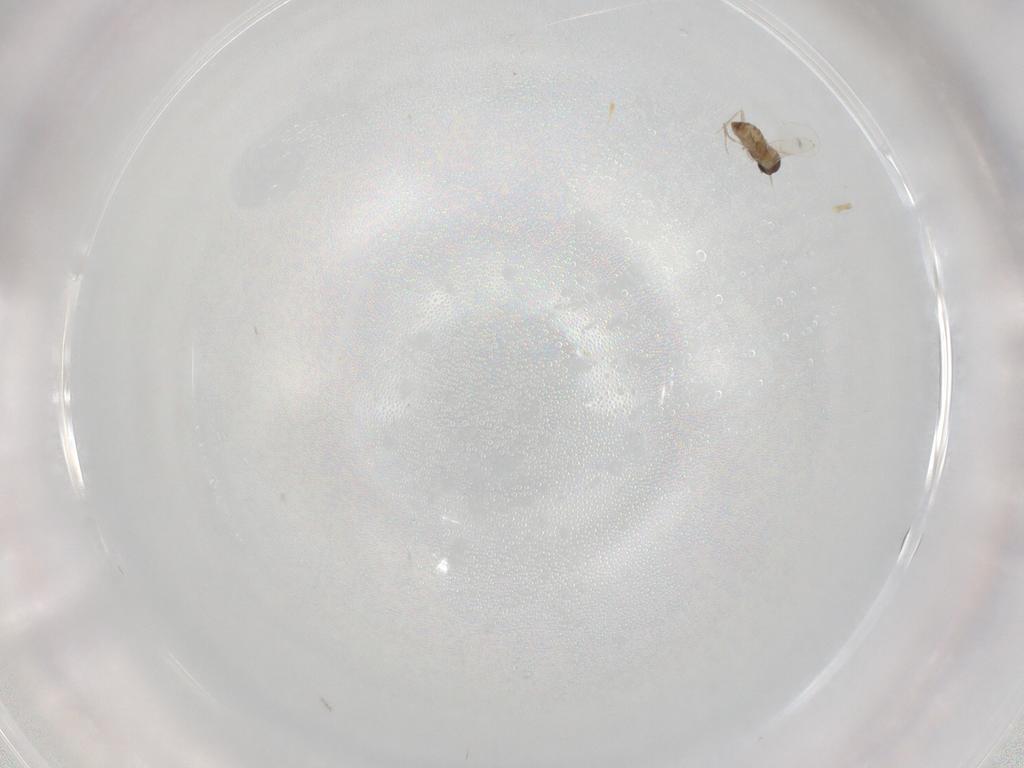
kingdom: Animalia
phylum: Arthropoda
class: Insecta
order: Diptera
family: Cecidomyiidae
